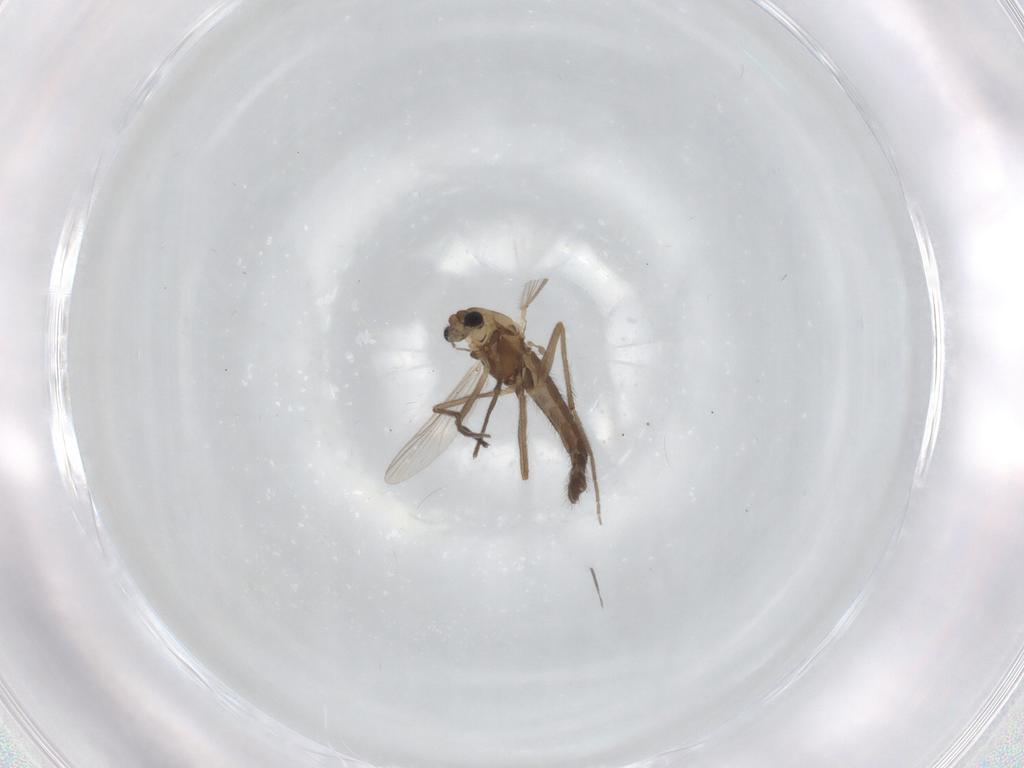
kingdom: Animalia
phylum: Arthropoda
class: Insecta
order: Diptera
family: Chironomidae
